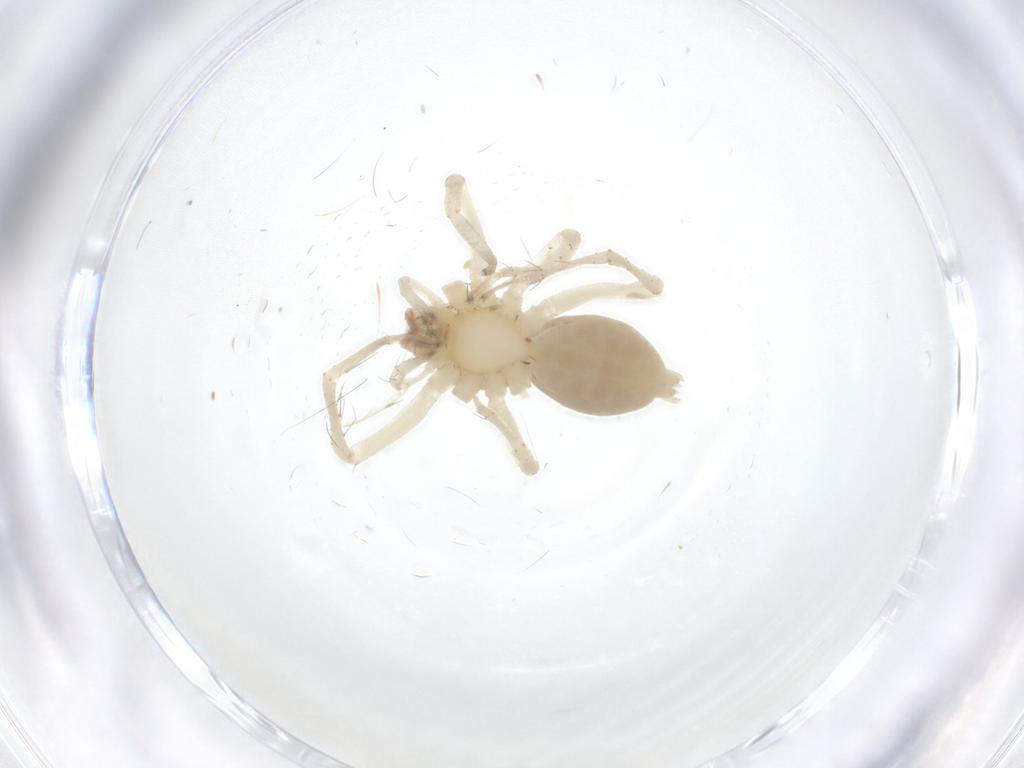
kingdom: Animalia
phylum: Arthropoda
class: Arachnida
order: Araneae
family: Anyphaenidae
